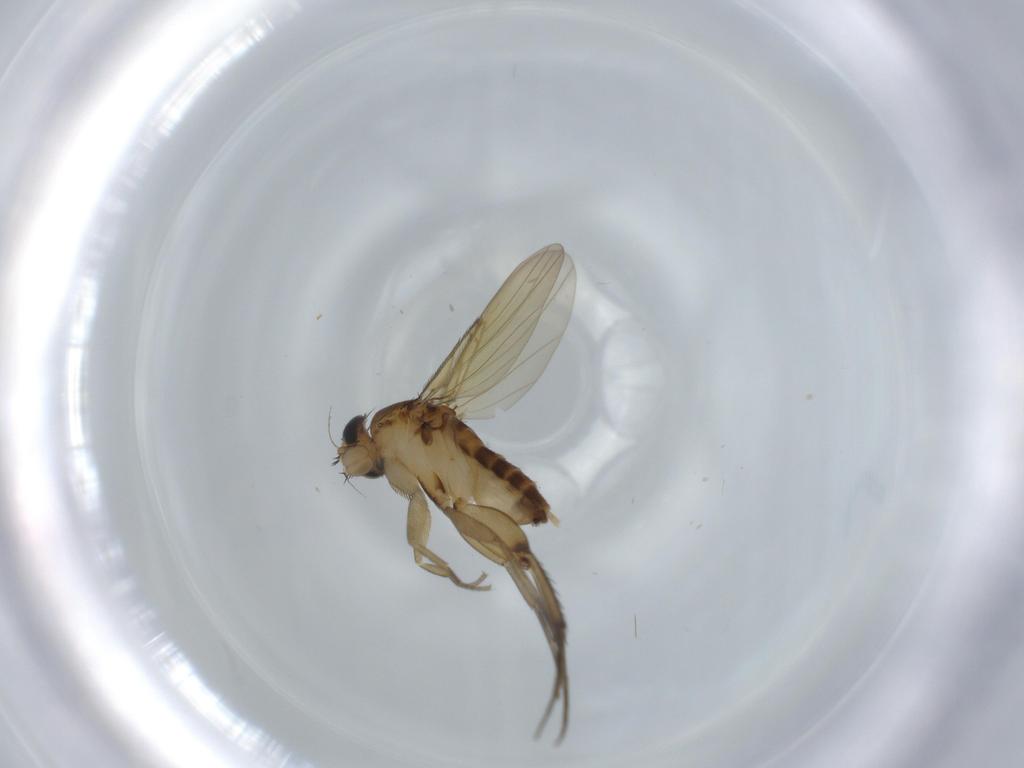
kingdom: Animalia
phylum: Arthropoda
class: Insecta
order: Diptera
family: Phoridae
